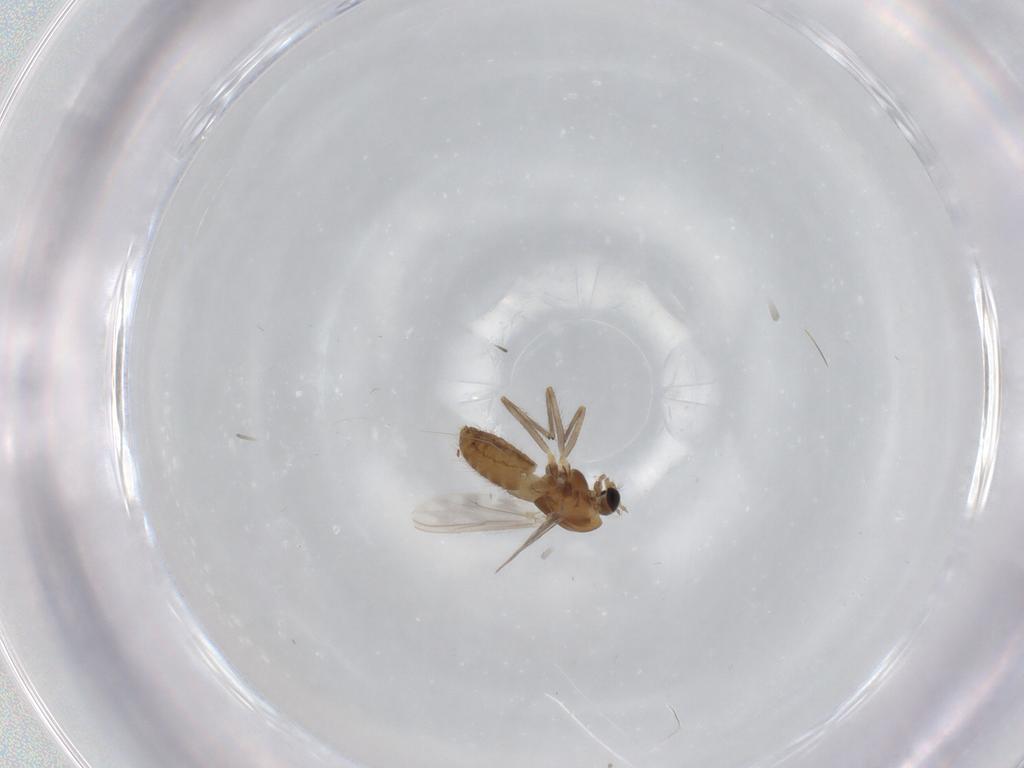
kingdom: Animalia
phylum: Arthropoda
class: Insecta
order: Diptera
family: Chironomidae
